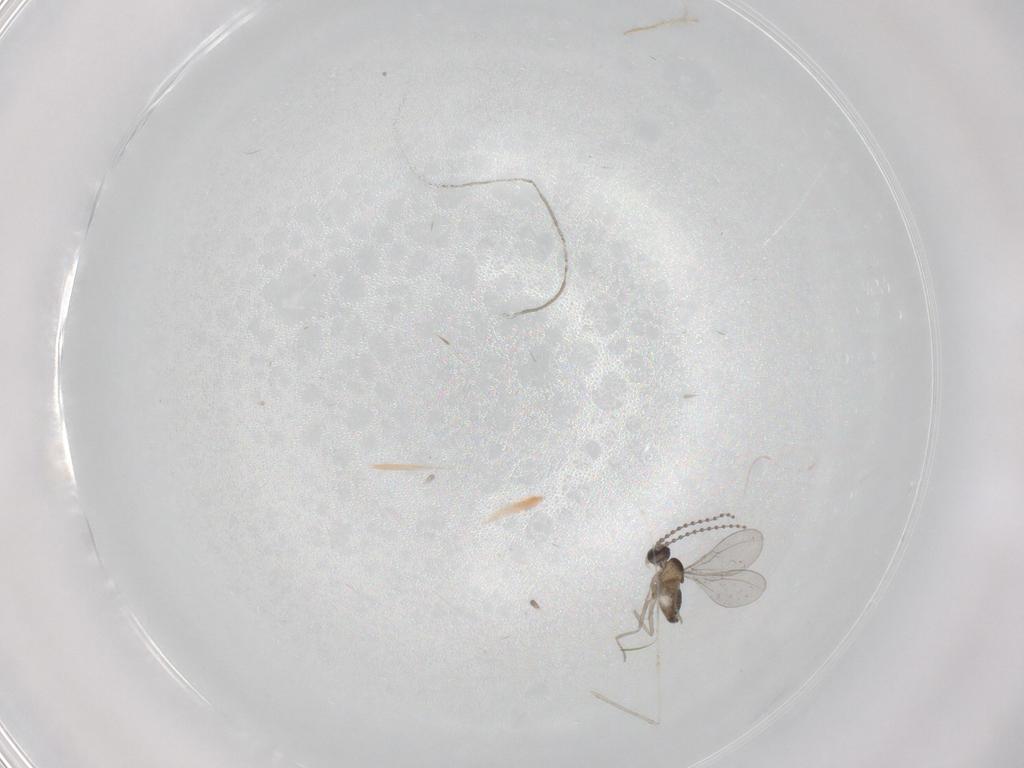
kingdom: Animalia
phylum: Arthropoda
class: Insecta
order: Diptera
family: Cecidomyiidae
